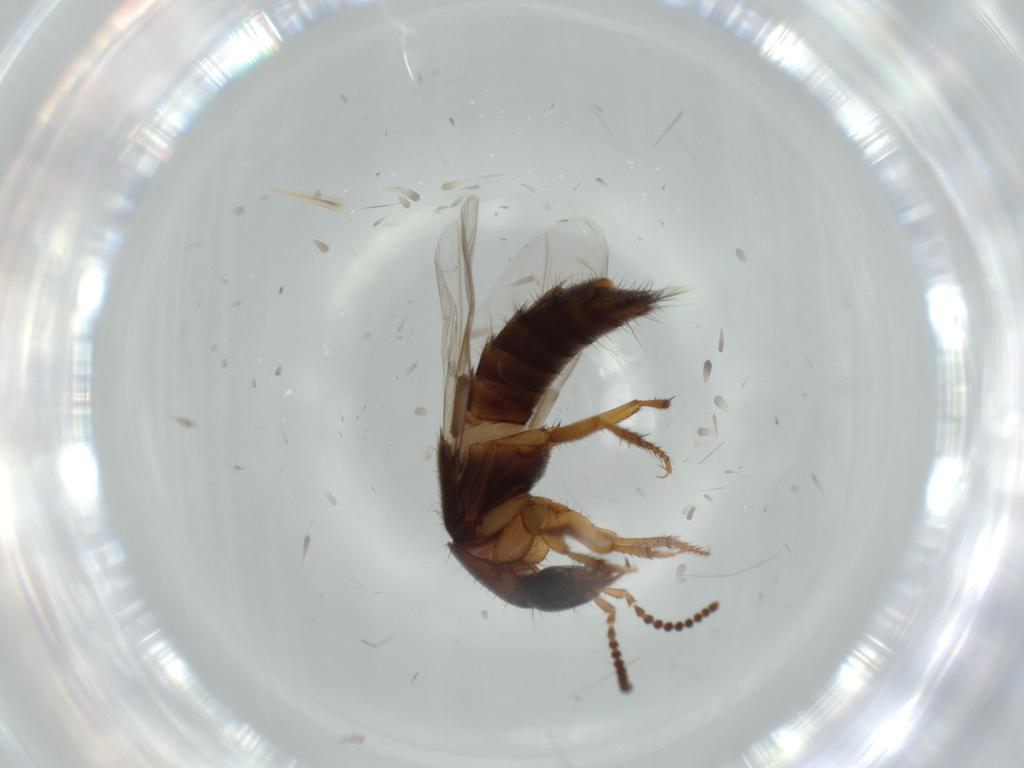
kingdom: Animalia
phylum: Arthropoda
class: Insecta
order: Coleoptera
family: Staphylinidae
